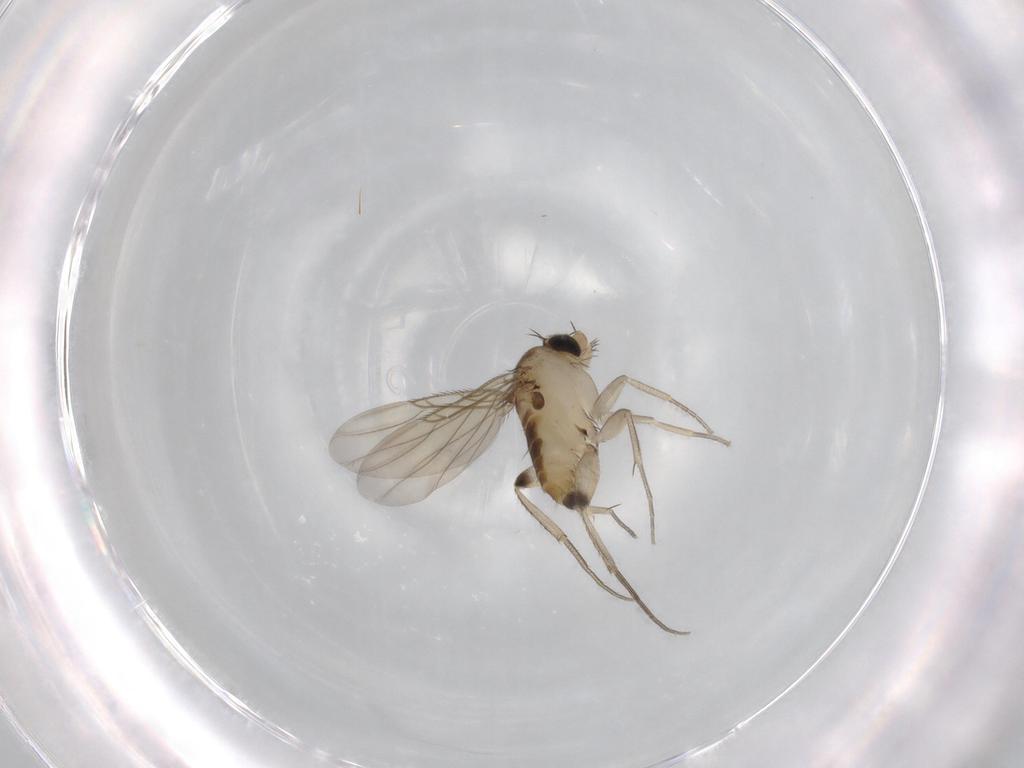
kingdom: Animalia
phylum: Arthropoda
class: Insecta
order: Diptera
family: Phoridae
